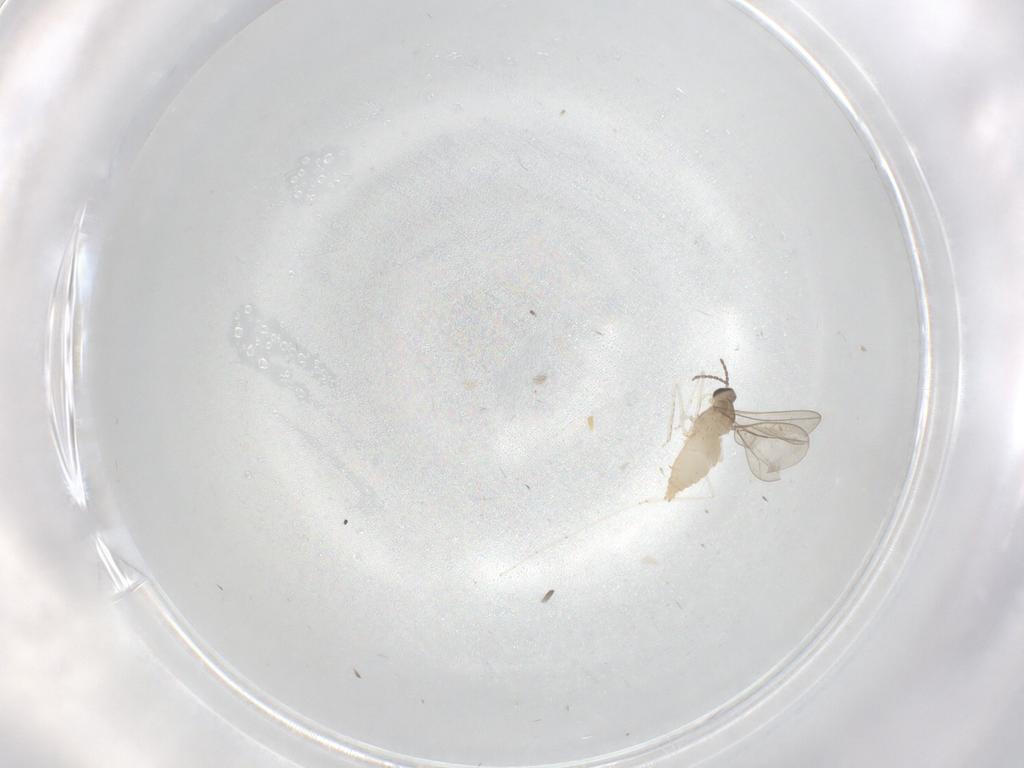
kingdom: Animalia
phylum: Arthropoda
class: Insecta
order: Diptera
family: Cecidomyiidae
